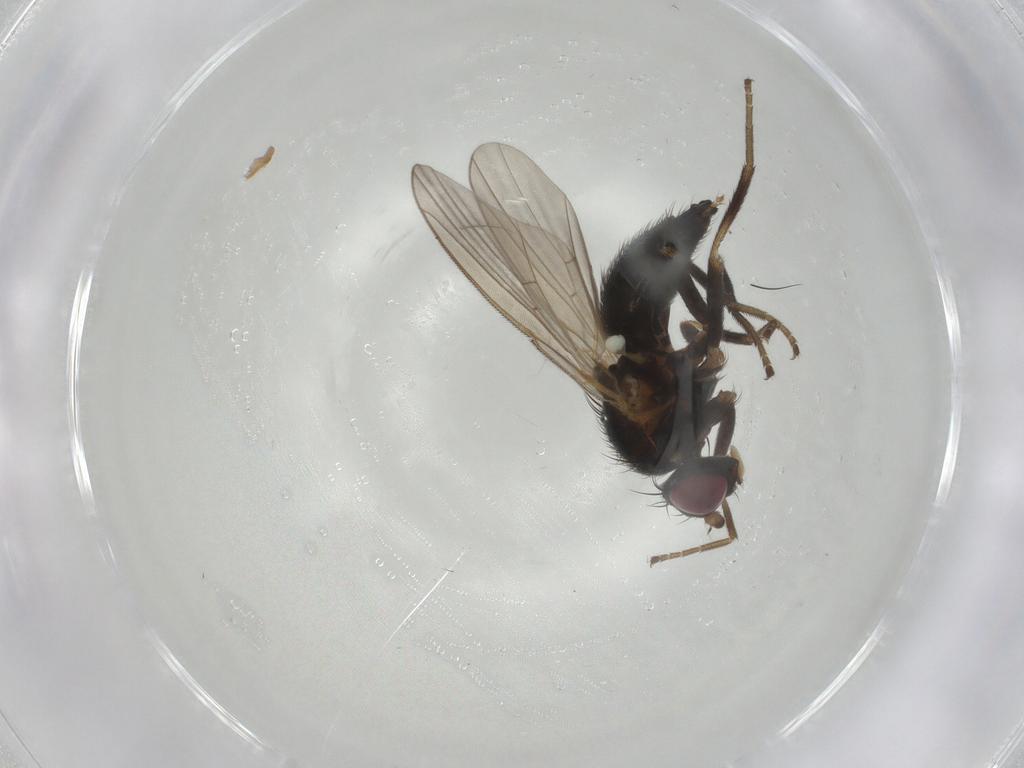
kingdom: Animalia
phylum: Arthropoda
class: Insecta
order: Diptera
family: Agromyzidae
